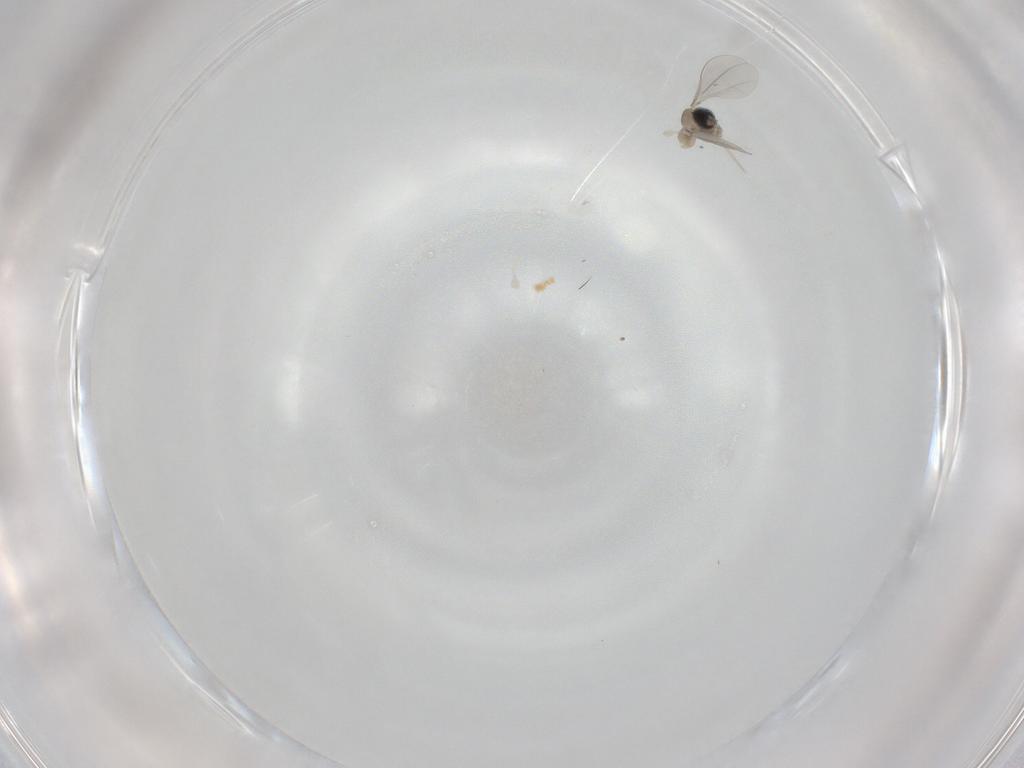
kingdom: Animalia
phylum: Arthropoda
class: Insecta
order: Diptera
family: Cecidomyiidae
